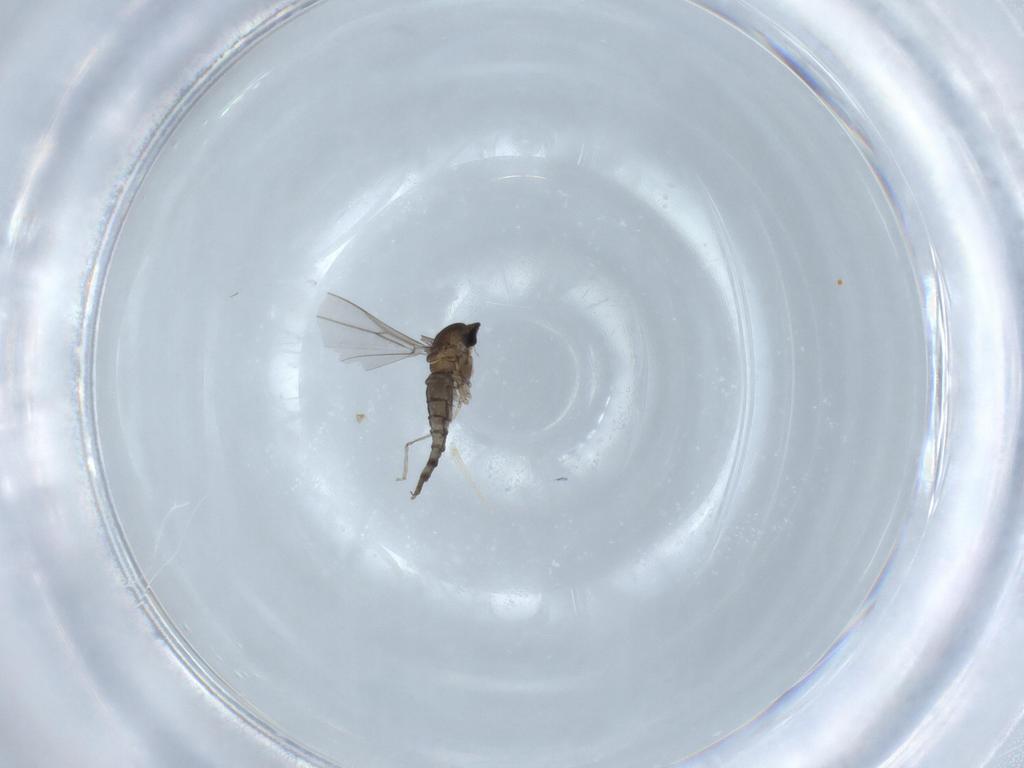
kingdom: Animalia
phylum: Arthropoda
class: Insecta
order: Diptera
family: Cecidomyiidae
